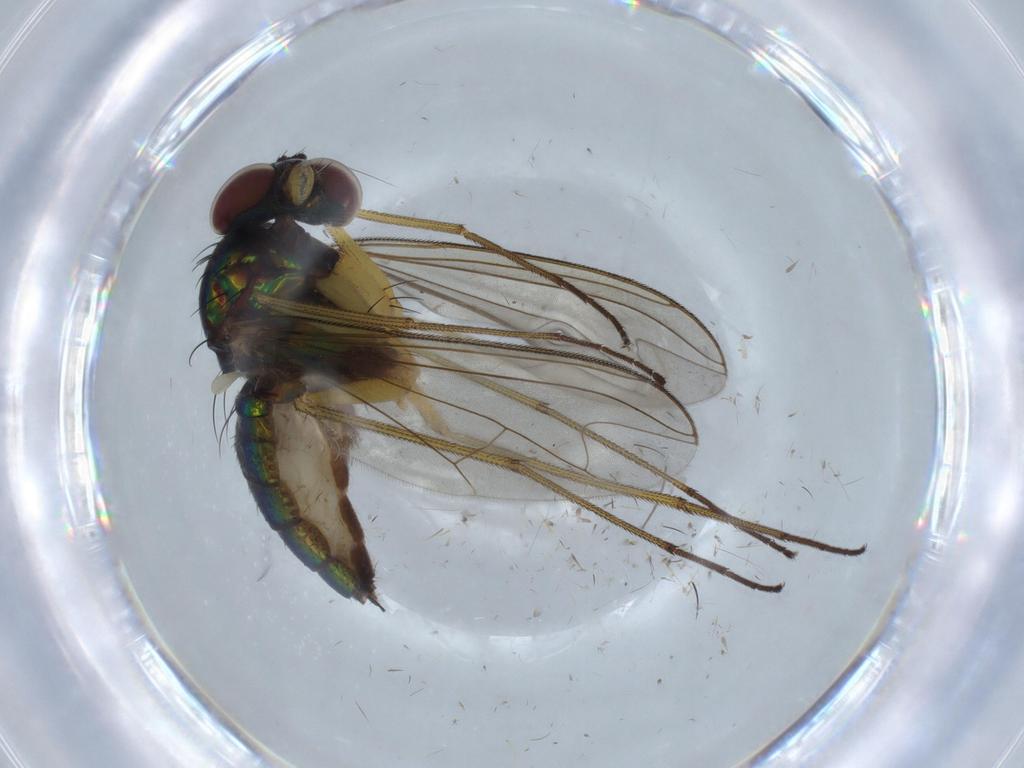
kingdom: Animalia
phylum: Arthropoda
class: Insecta
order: Diptera
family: Dolichopodidae
